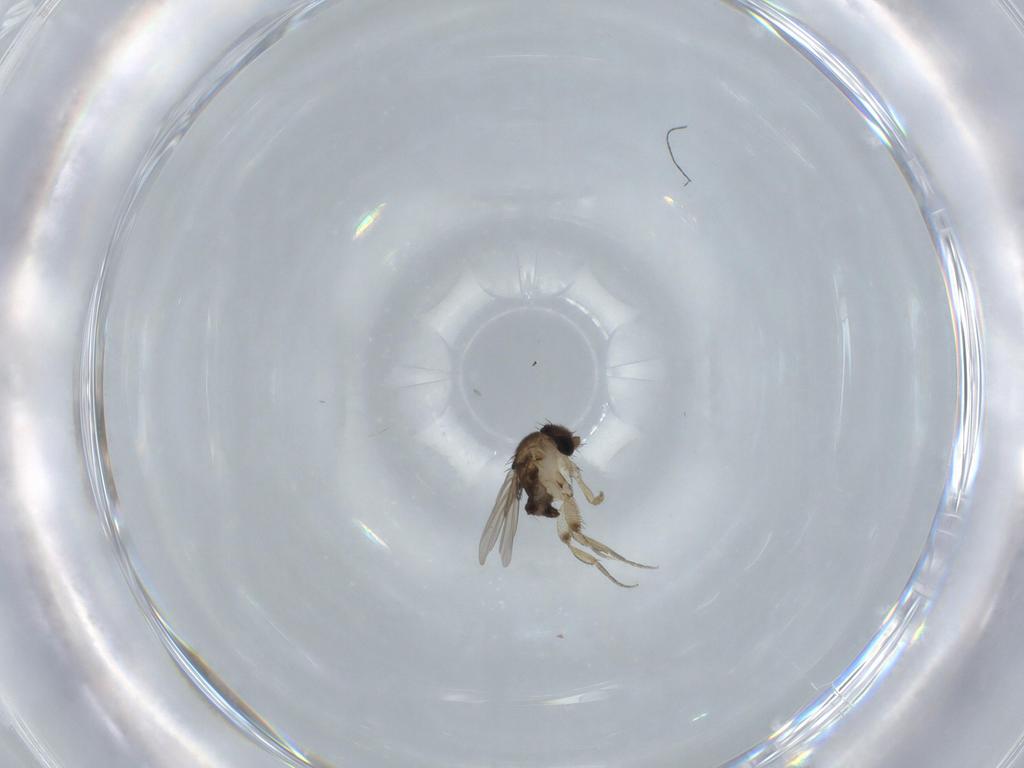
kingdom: Animalia
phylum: Arthropoda
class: Insecta
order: Diptera
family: Phoridae
